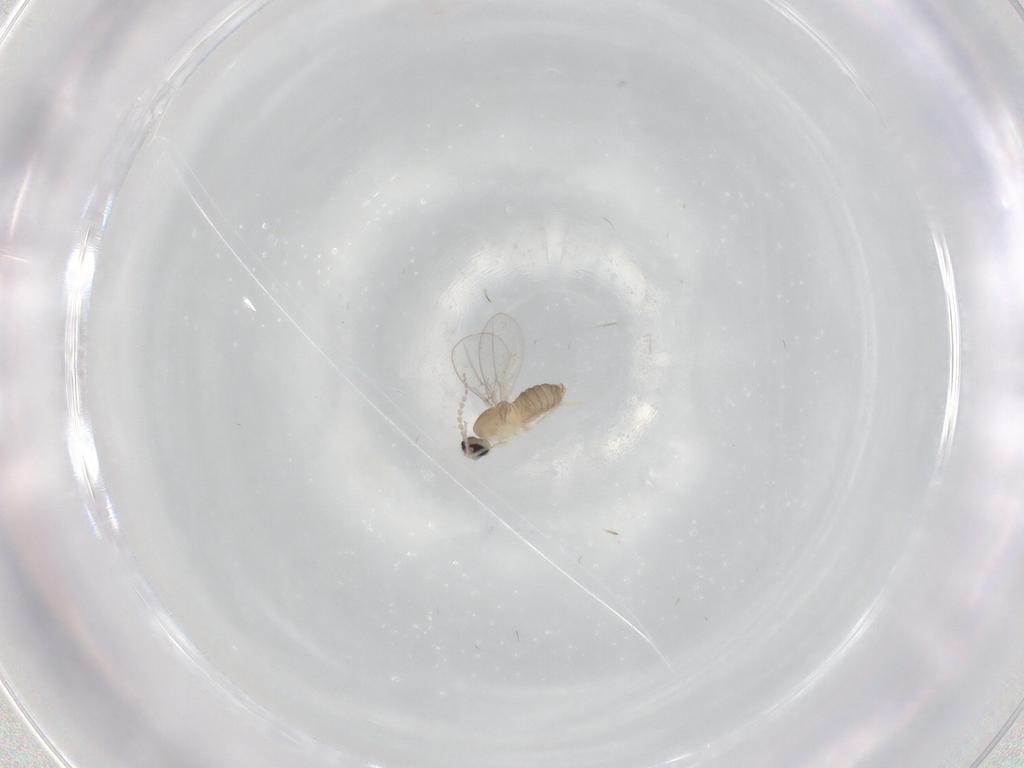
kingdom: Animalia
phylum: Arthropoda
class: Insecta
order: Diptera
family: Cecidomyiidae
